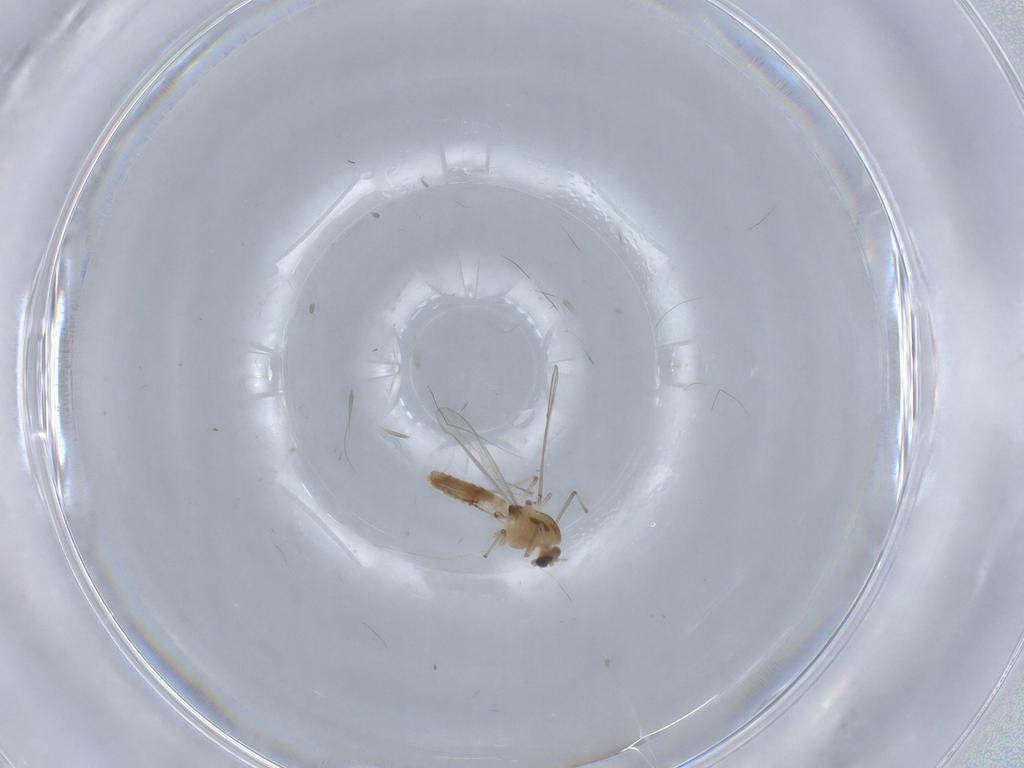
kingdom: Animalia
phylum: Arthropoda
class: Insecta
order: Diptera
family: Chironomidae
